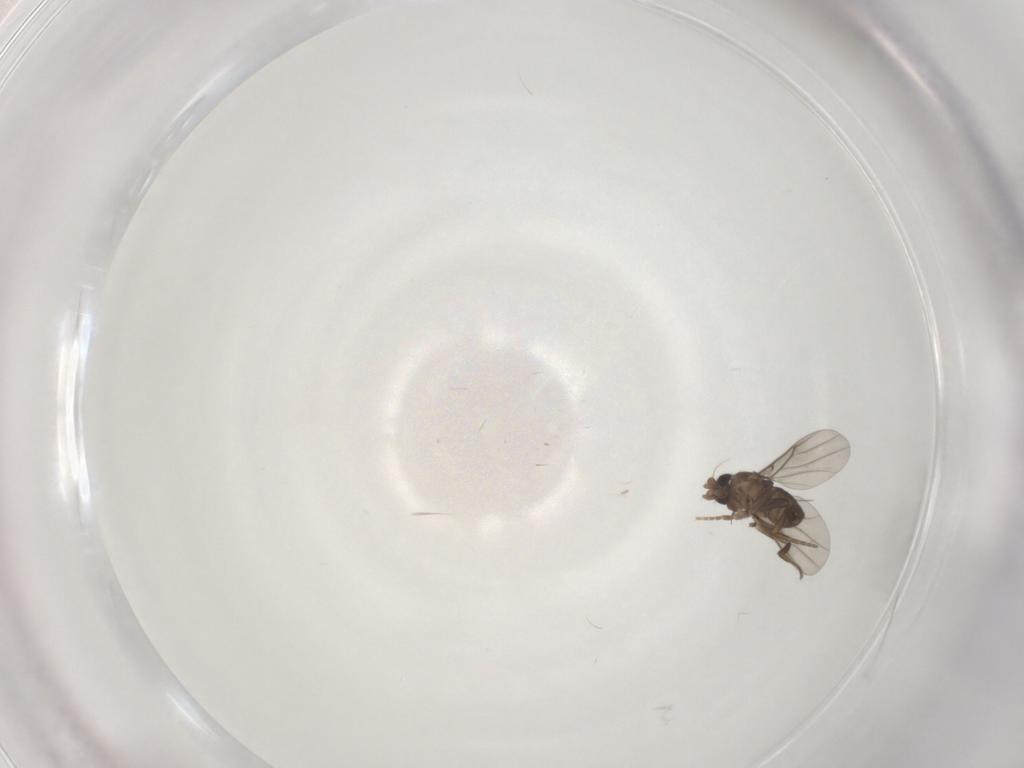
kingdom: Animalia
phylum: Arthropoda
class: Insecta
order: Diptera
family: Phoridae
